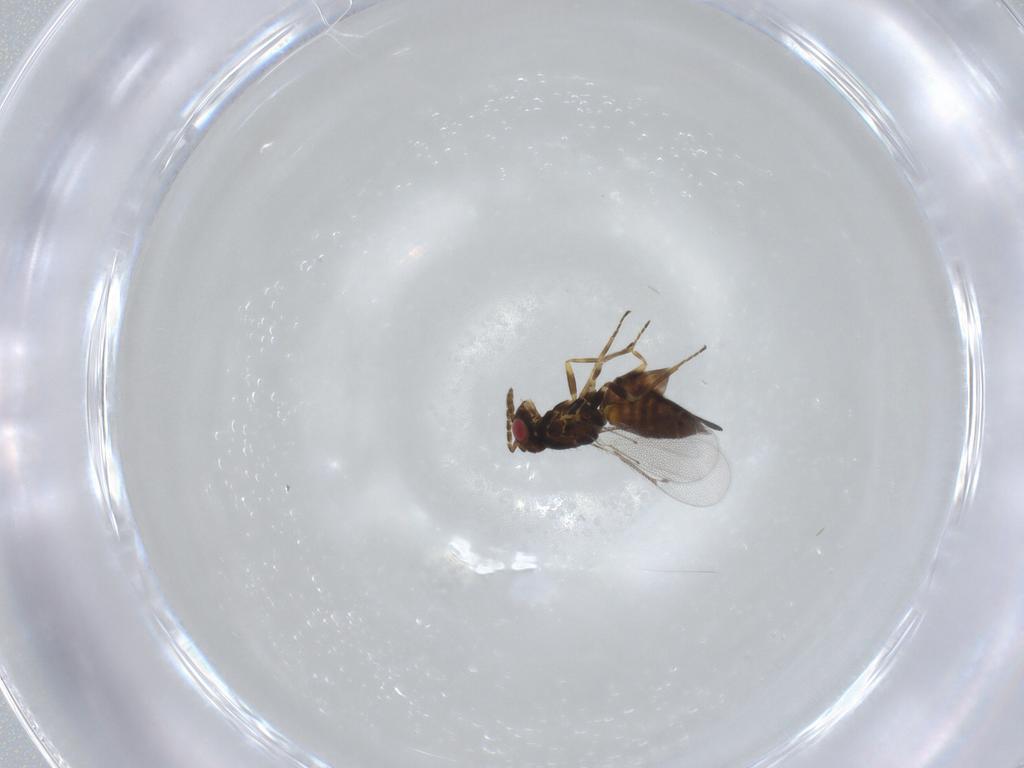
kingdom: Animalia
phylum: Arthropoda
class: Insecta
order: Hymenoptera
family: Eulophidae
